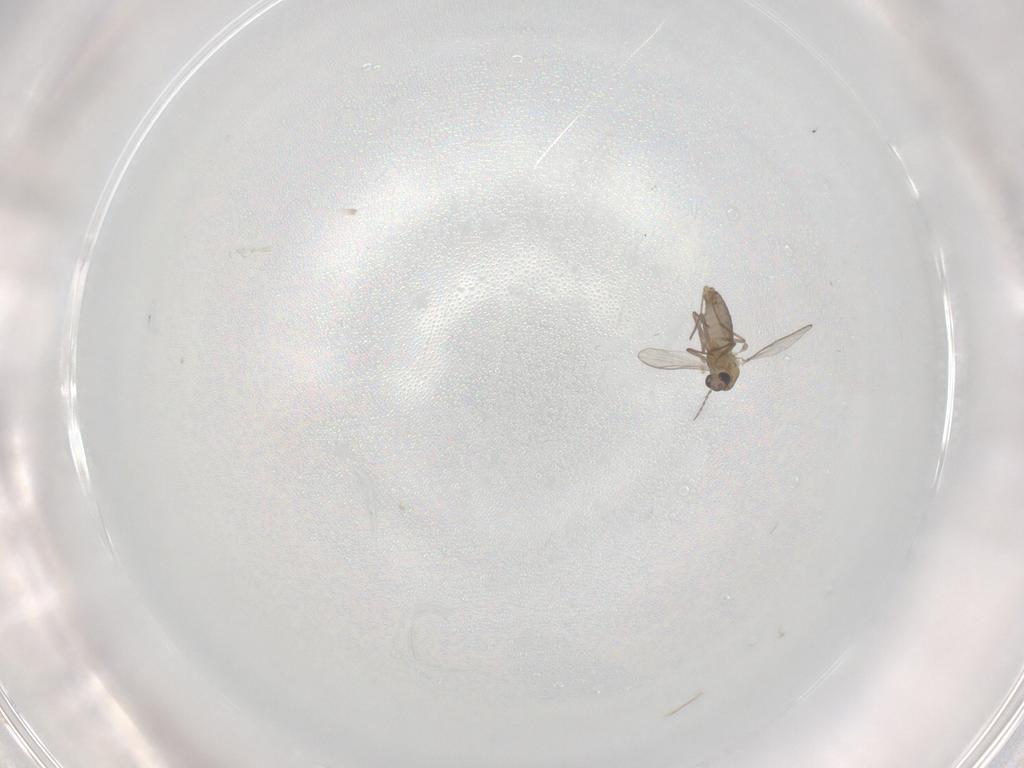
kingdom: Animalia
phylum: Arthropoda
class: Insecta
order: Diptera
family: Chironomidae
